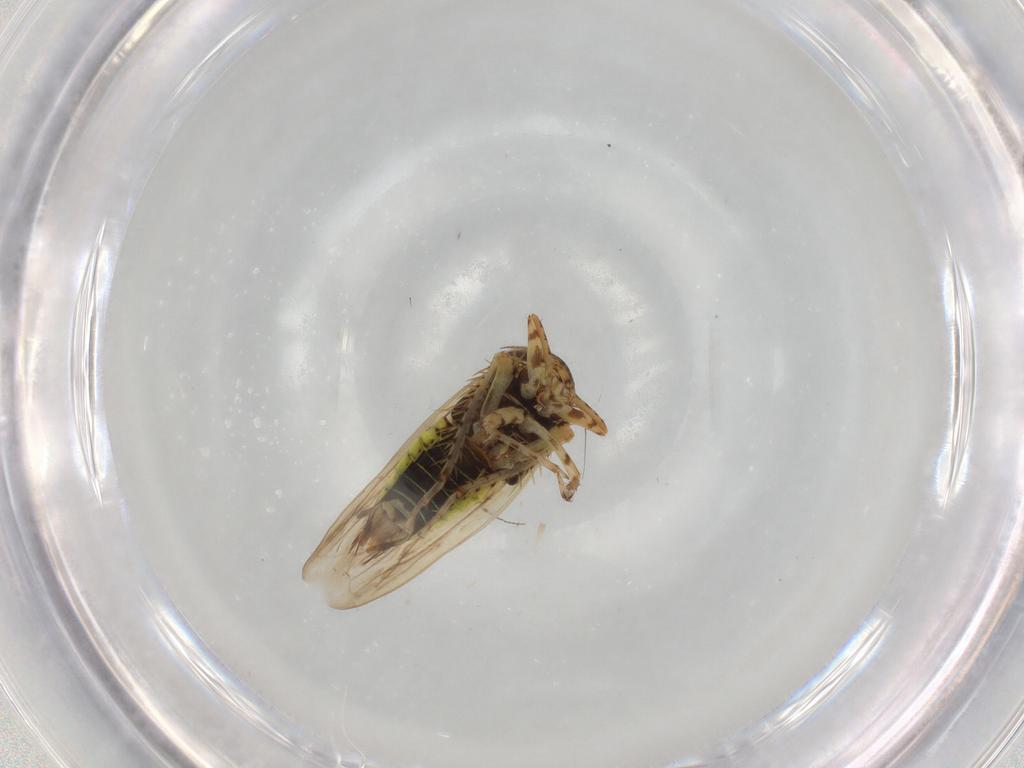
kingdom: Animalia
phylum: Arthropoda
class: Insecta
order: Hemiptera
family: Cicadellidae
